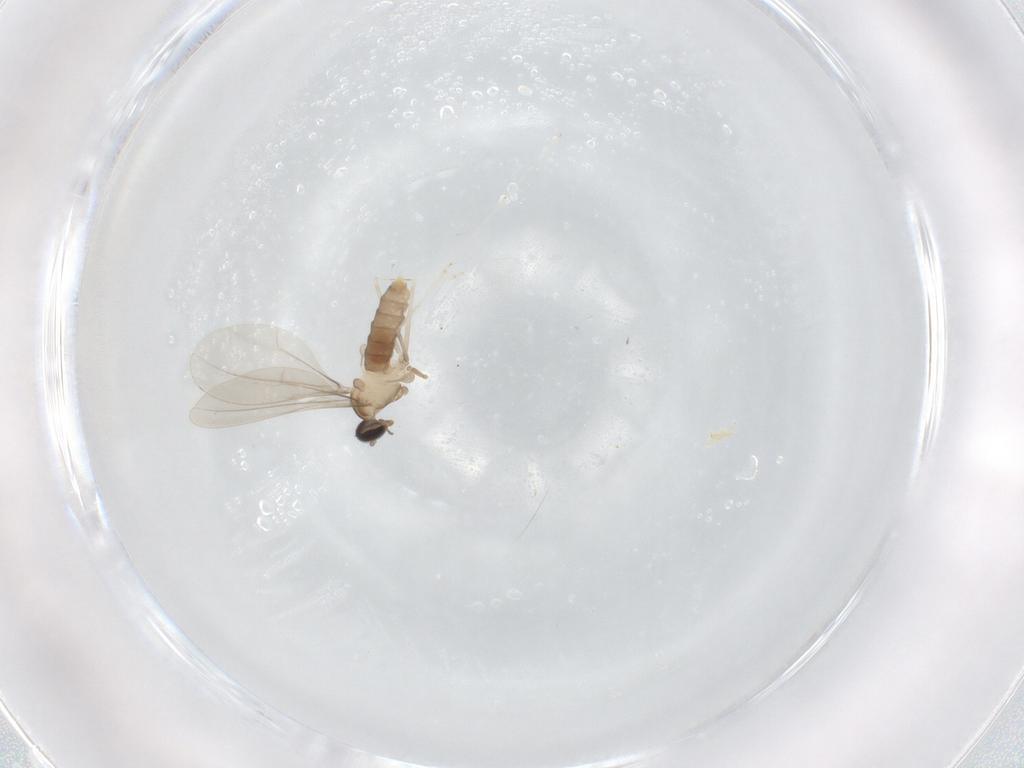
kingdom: Animalia
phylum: Arthropoda
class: Insecta
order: Diptera
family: Cecidomyiidae
